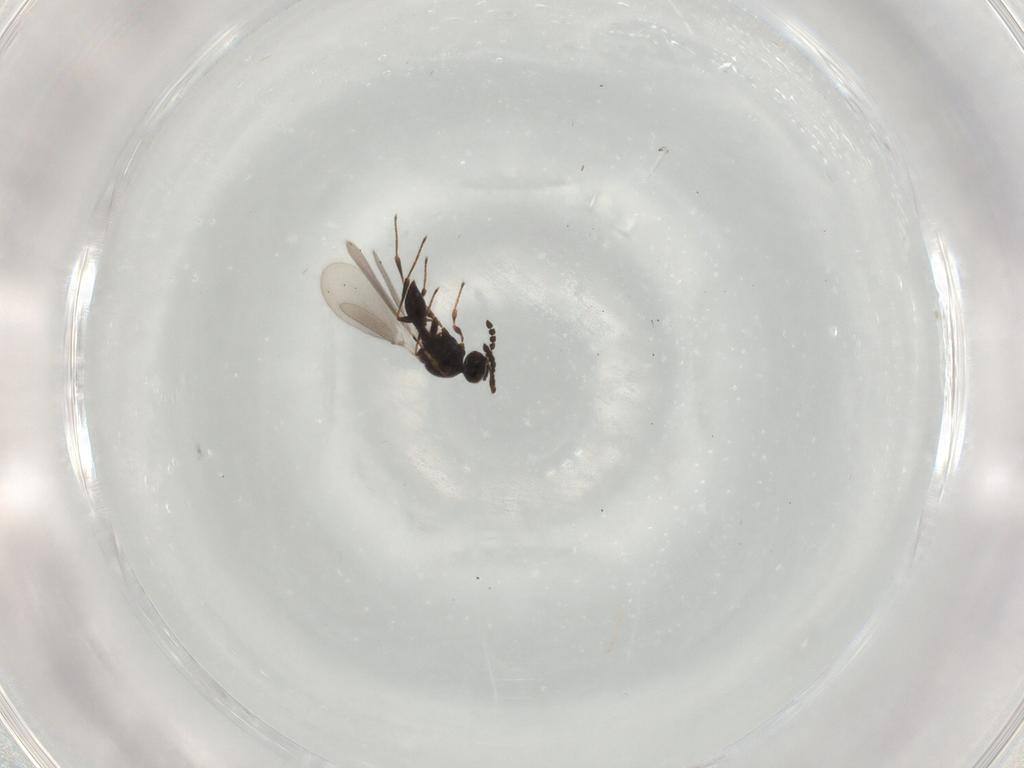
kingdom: Animalia
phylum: Arthropoda
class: Insecta
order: Hymenoptera
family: Platygastridae
